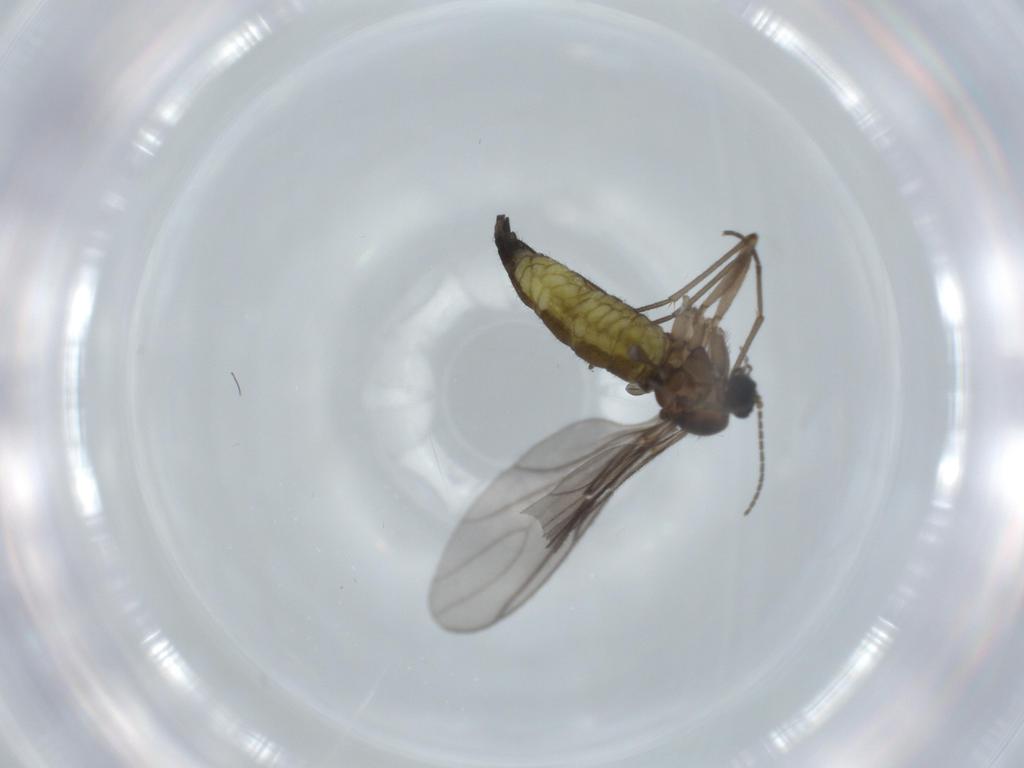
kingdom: Animalia
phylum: Arthropoda
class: Insecta
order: Diptera
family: Sciaridae
